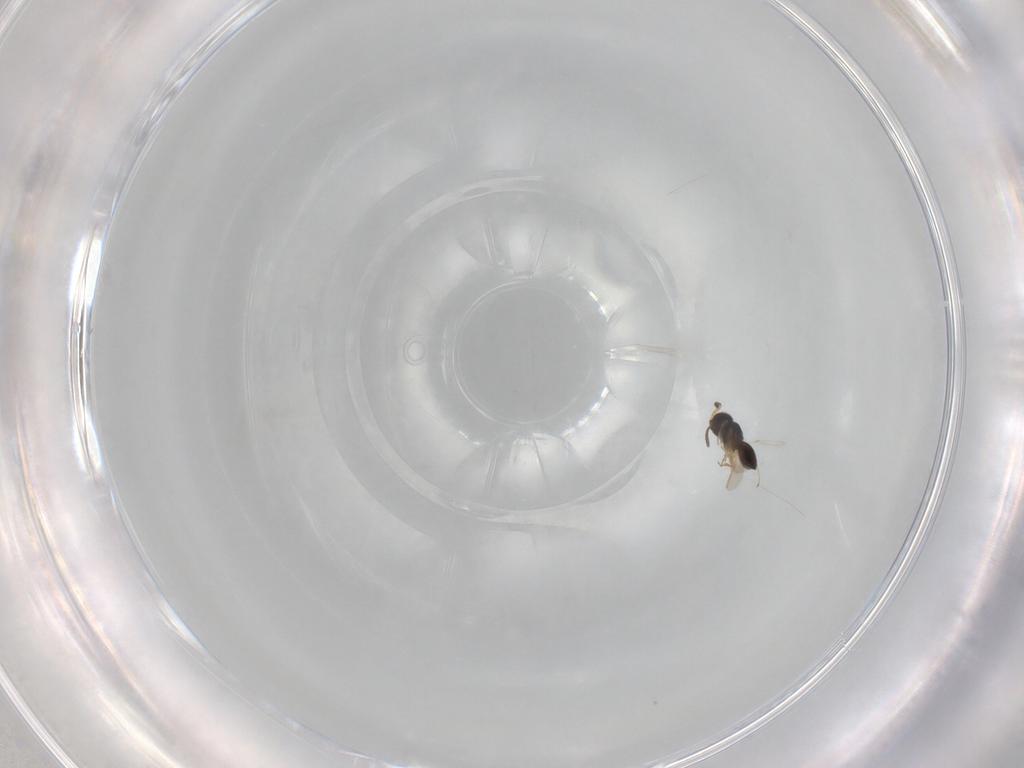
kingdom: Animalia
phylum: Arthropoda
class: Insecta
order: Hymenoptera
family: Scelionidae
